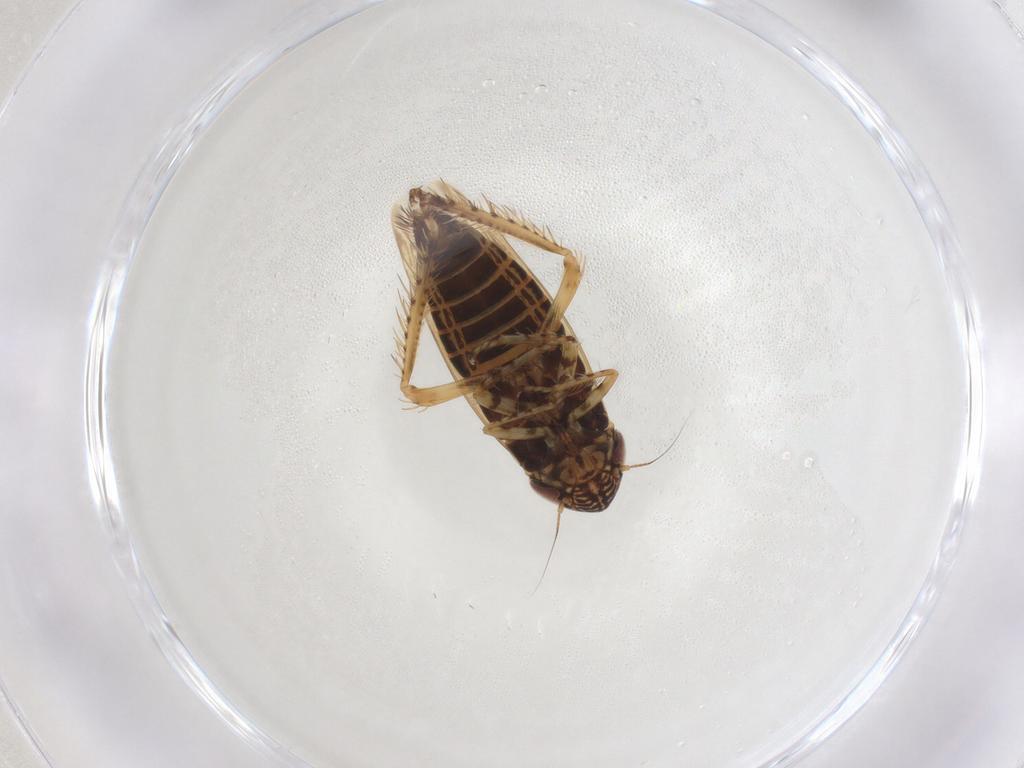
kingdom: Animalia
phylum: Arthropoda
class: Insecta
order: Hemiptera
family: Cicadellidae
